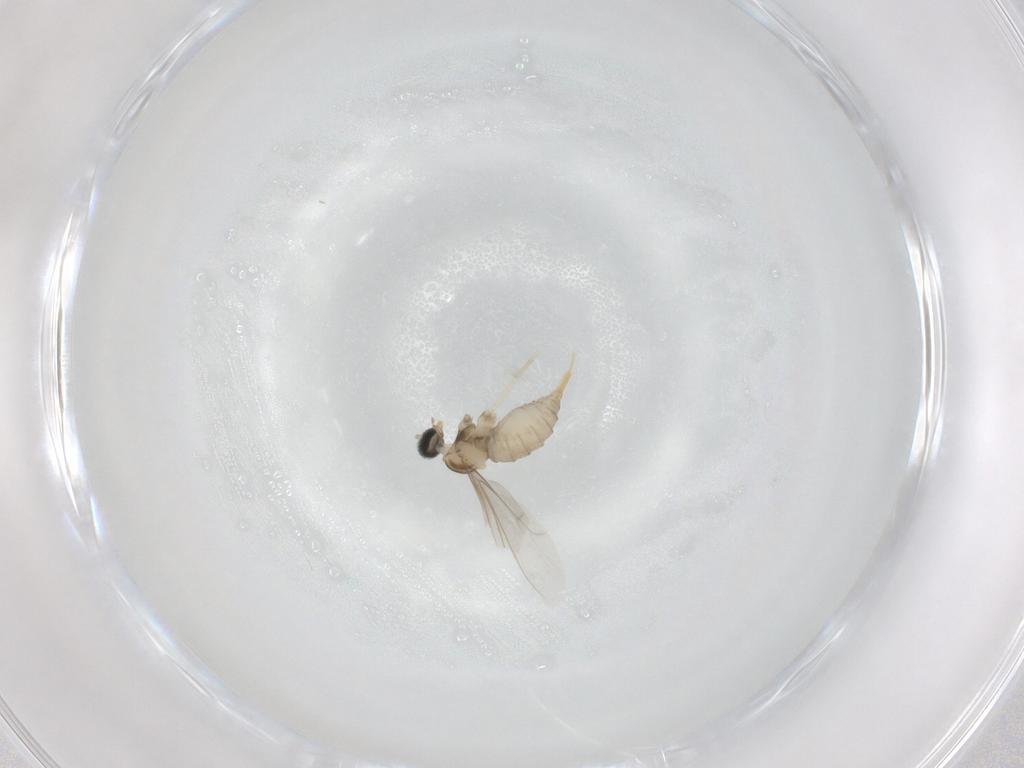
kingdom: Animalia
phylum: Arthropoda
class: Insecta
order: Diptera
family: Cecidomyiidae
